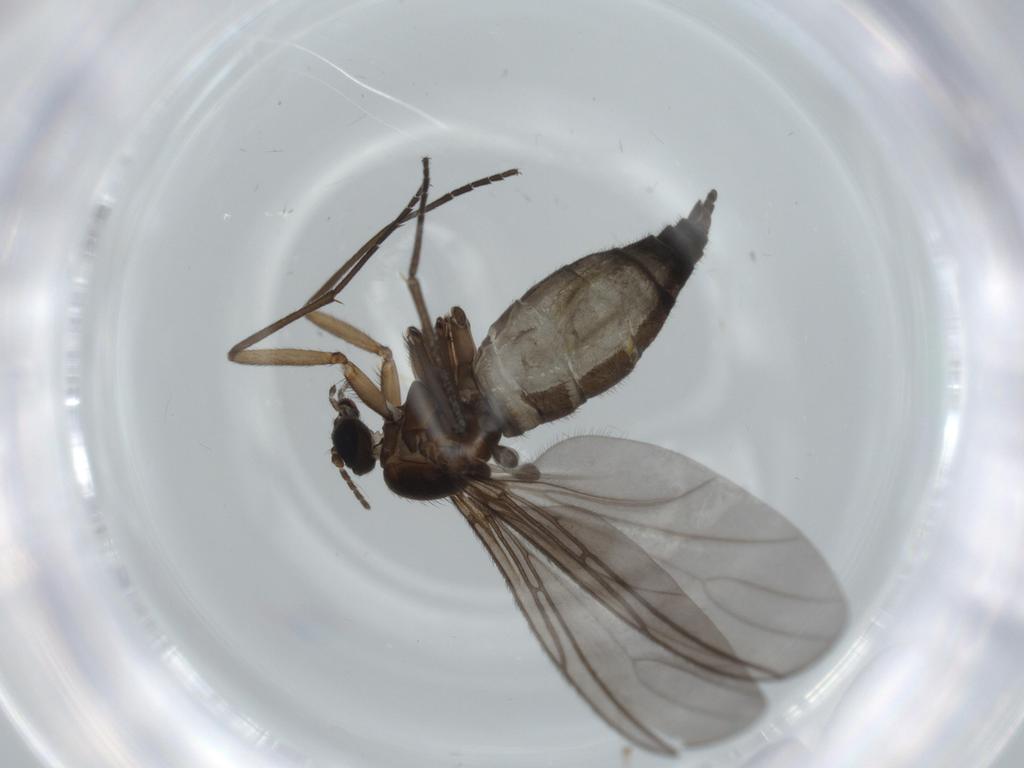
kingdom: Animalia
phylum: Arthropoda
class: Insecta
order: Diptera
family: Sciaridae
